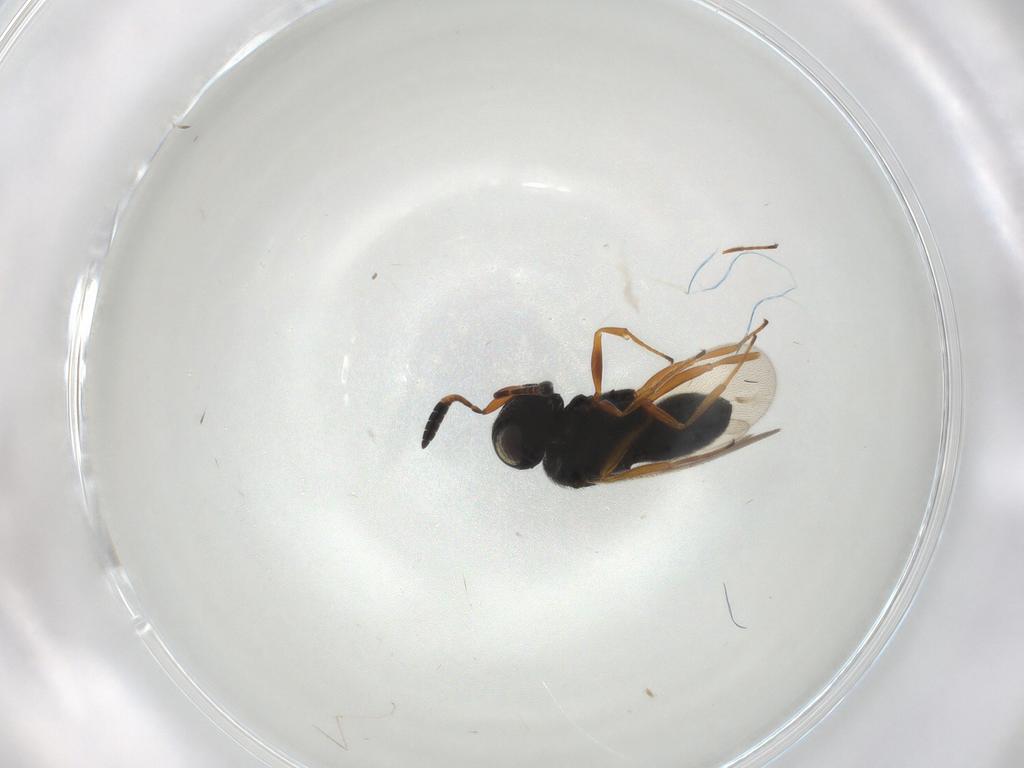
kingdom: Animalia
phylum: Arthropoda
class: Insecta
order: Hymenoptera
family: Scelionidae
